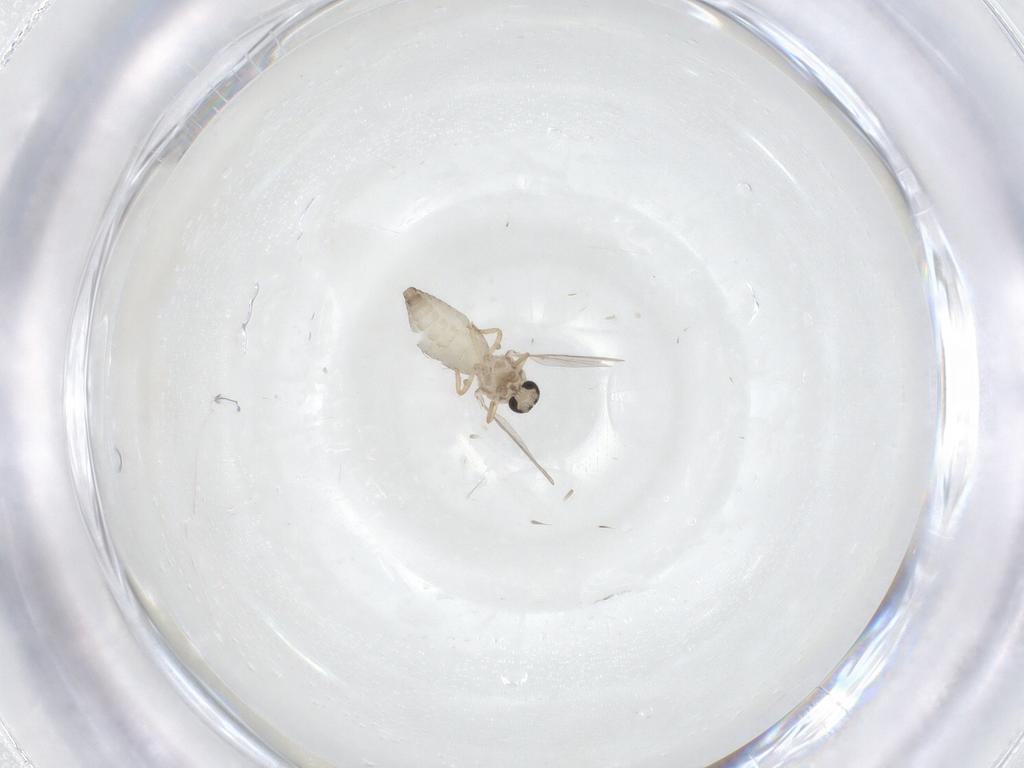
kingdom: Animalia
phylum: Arthropoda
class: Insecta
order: Diptera
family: Ceratopogonidae
